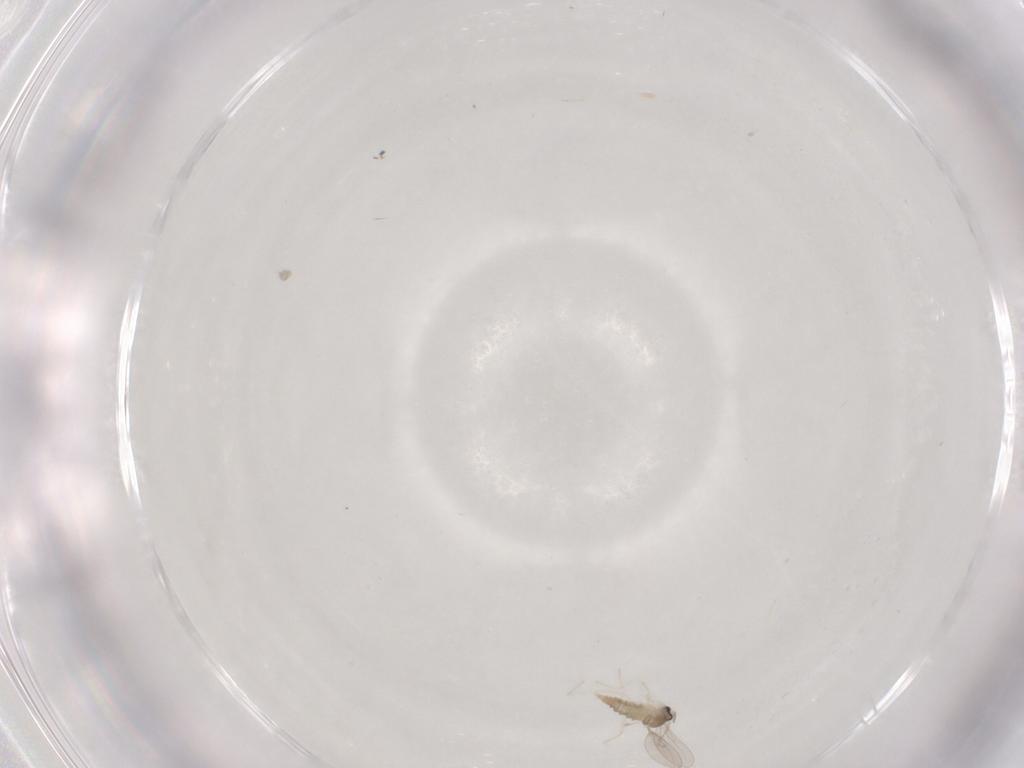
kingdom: Animalia
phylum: Arthropoda
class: Insecta
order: Diptera
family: Cecidomyiidae
